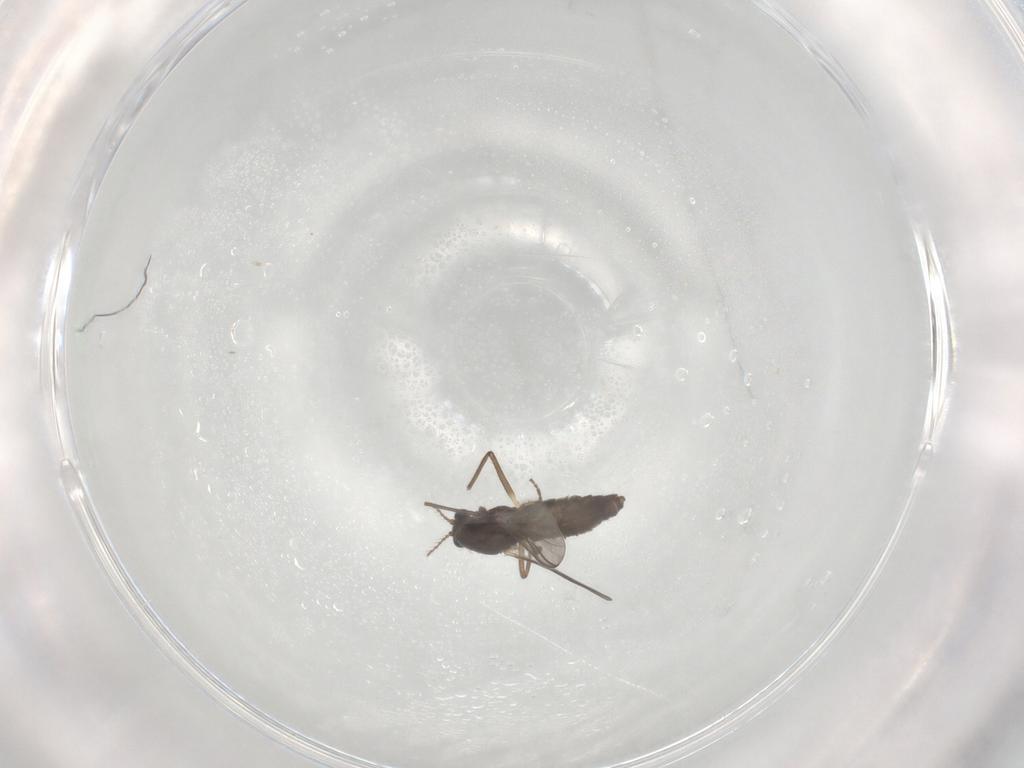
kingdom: Animalia
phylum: Arthropoda
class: Insecta
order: Diptera
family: Chironomidae
